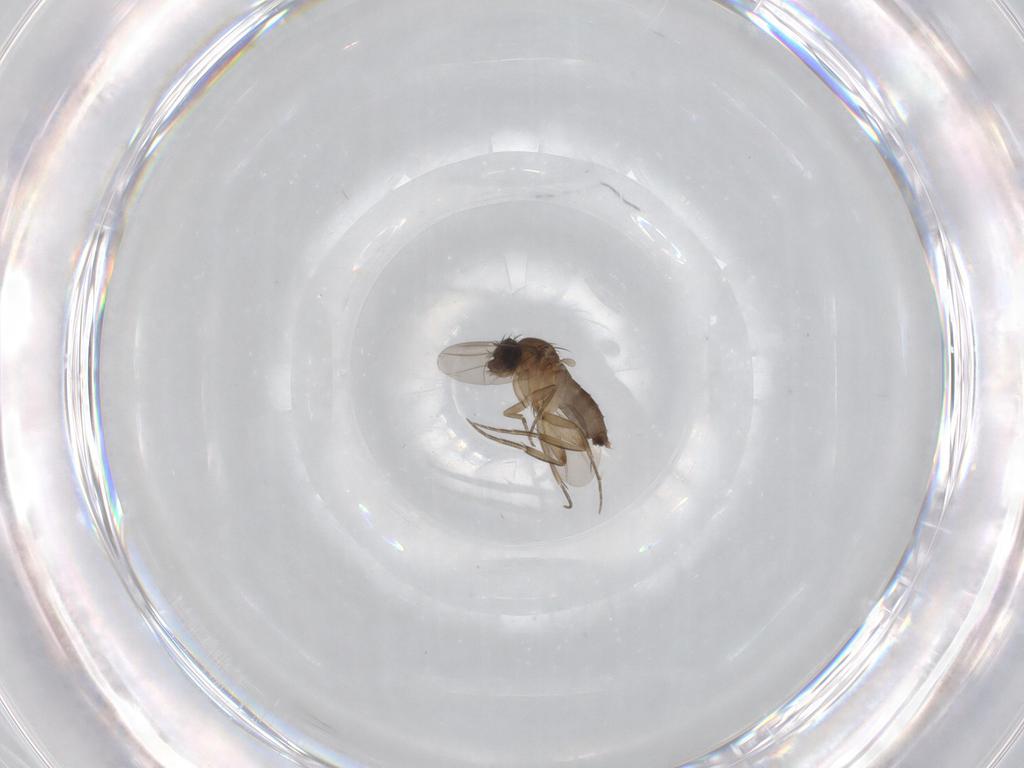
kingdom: Animalia
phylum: Arthropoda
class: Insecta
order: Diptera
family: Phoridae
